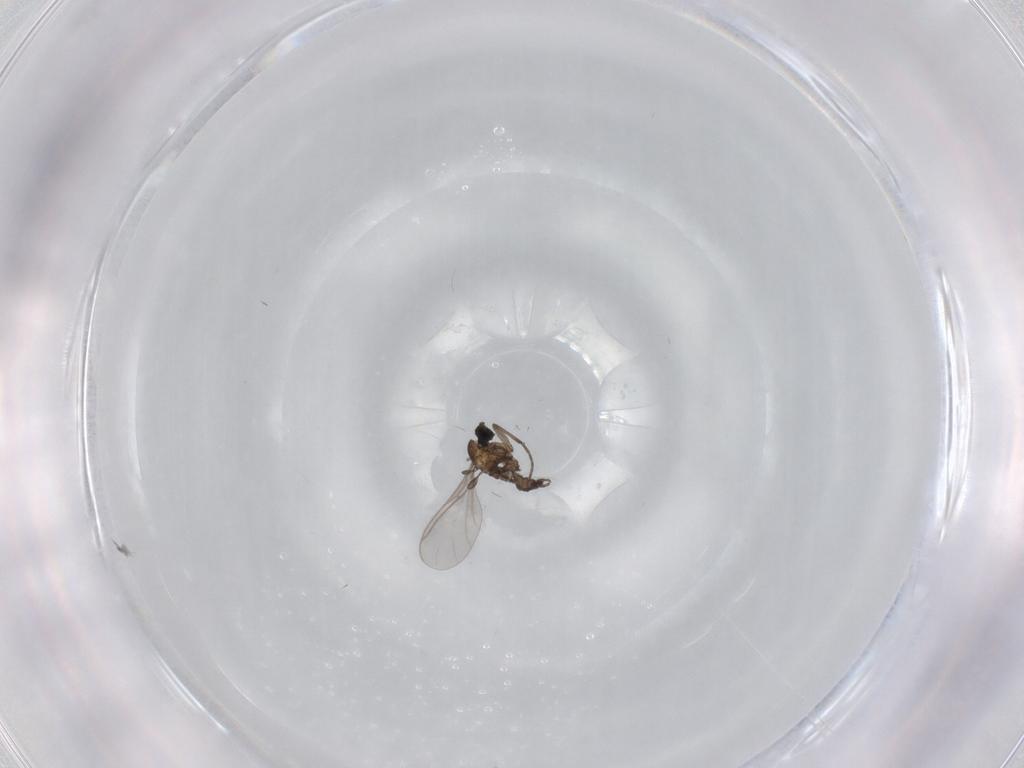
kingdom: Animalia
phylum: Arthropoda
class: Insecta
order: Diptera
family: Sciaridae
